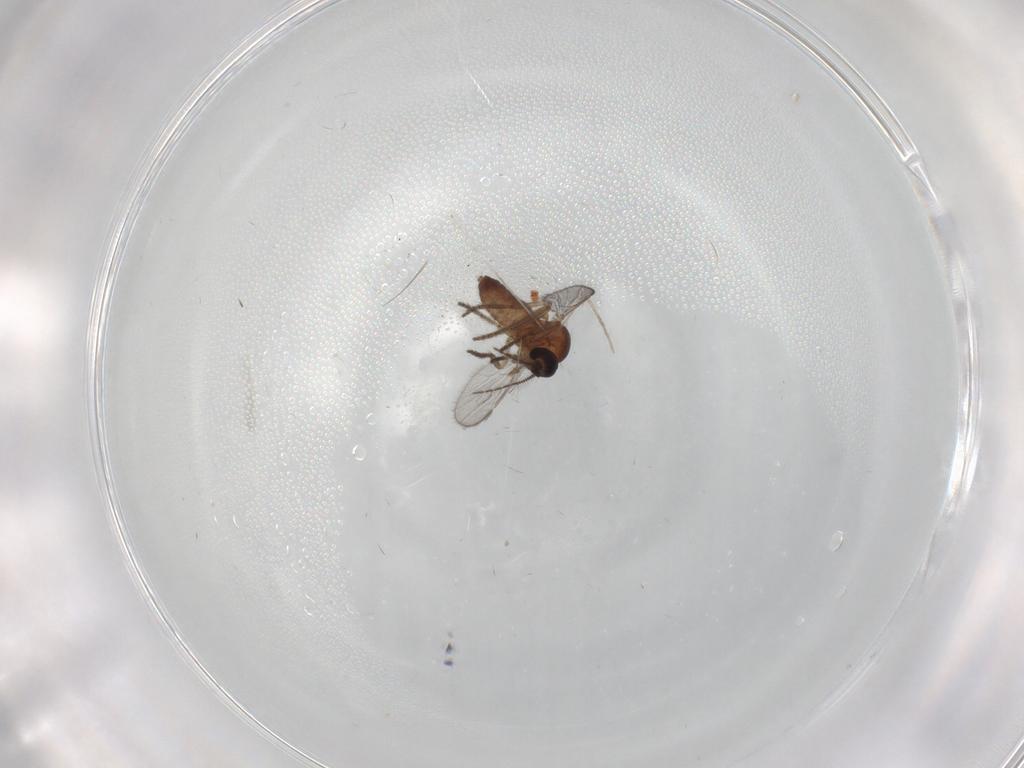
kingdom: Animalia
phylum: Arthropoda
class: Insecta
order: Diptera
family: Ceratopogonidae
